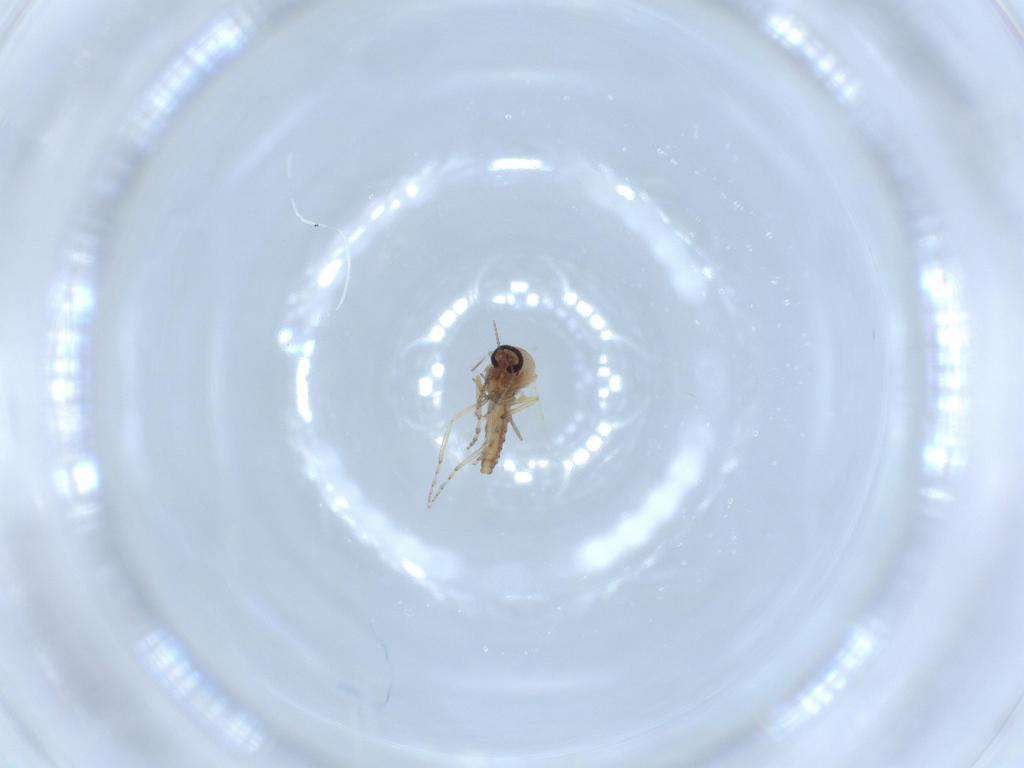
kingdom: Animalia
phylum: Arthropoda
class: Insecta
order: Diptera
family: Ceratopogonidae
